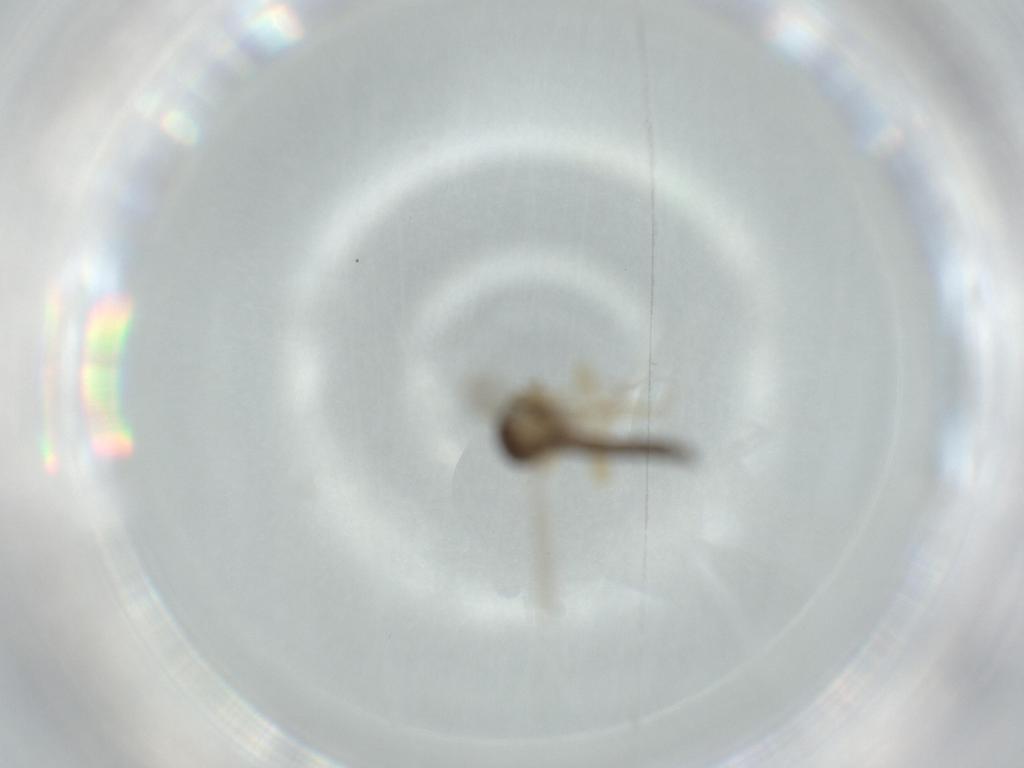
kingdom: Animalia
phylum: Arthropoda
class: Insecta
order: Diptera
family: Ceratopogonidae
